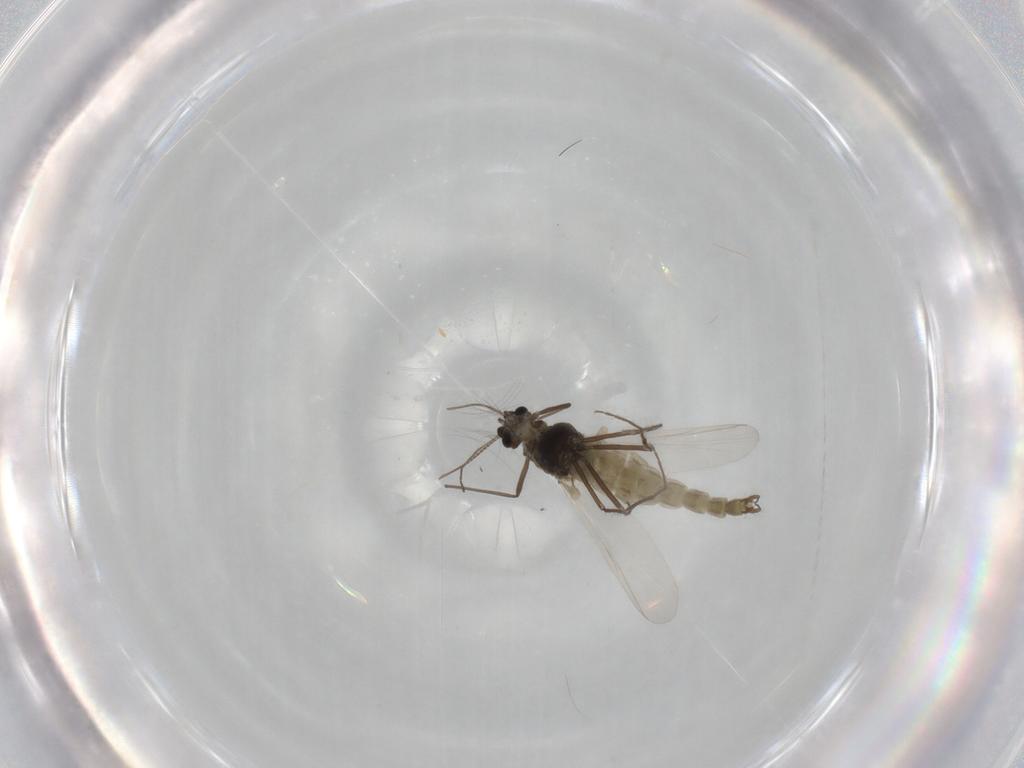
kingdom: Animalia
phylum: Arthropoda
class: Insecta
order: Diptera
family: Chironomidae
